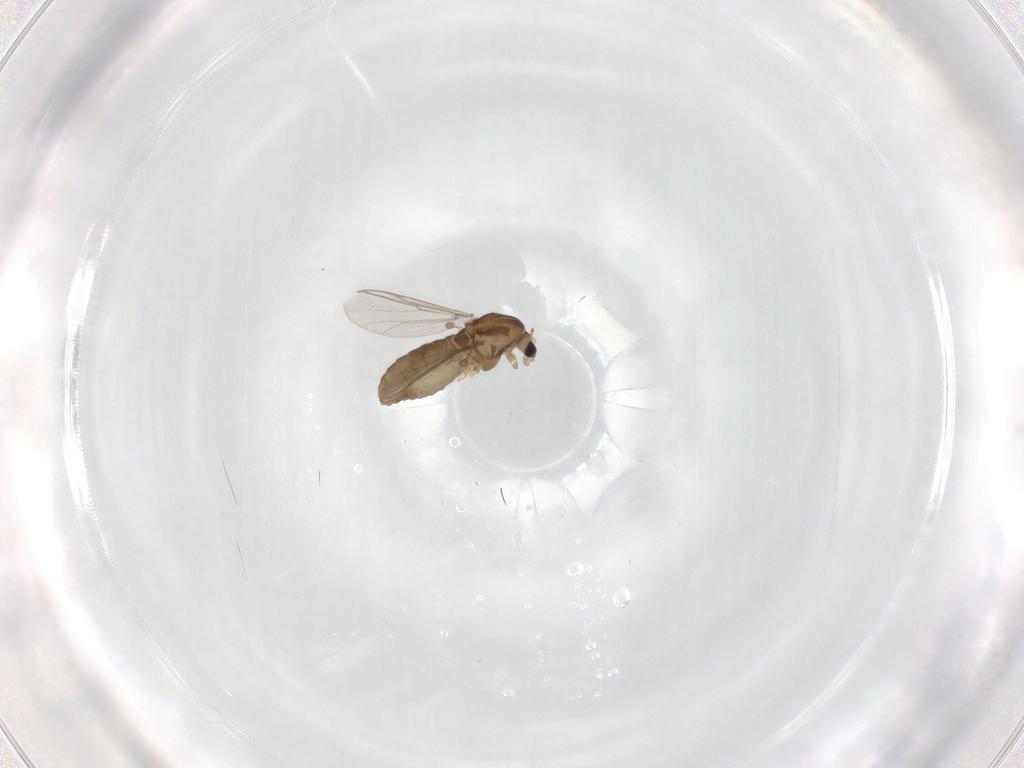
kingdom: Animalia
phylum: Arthropoda
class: Insecta
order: Diptera
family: Chironomidae
